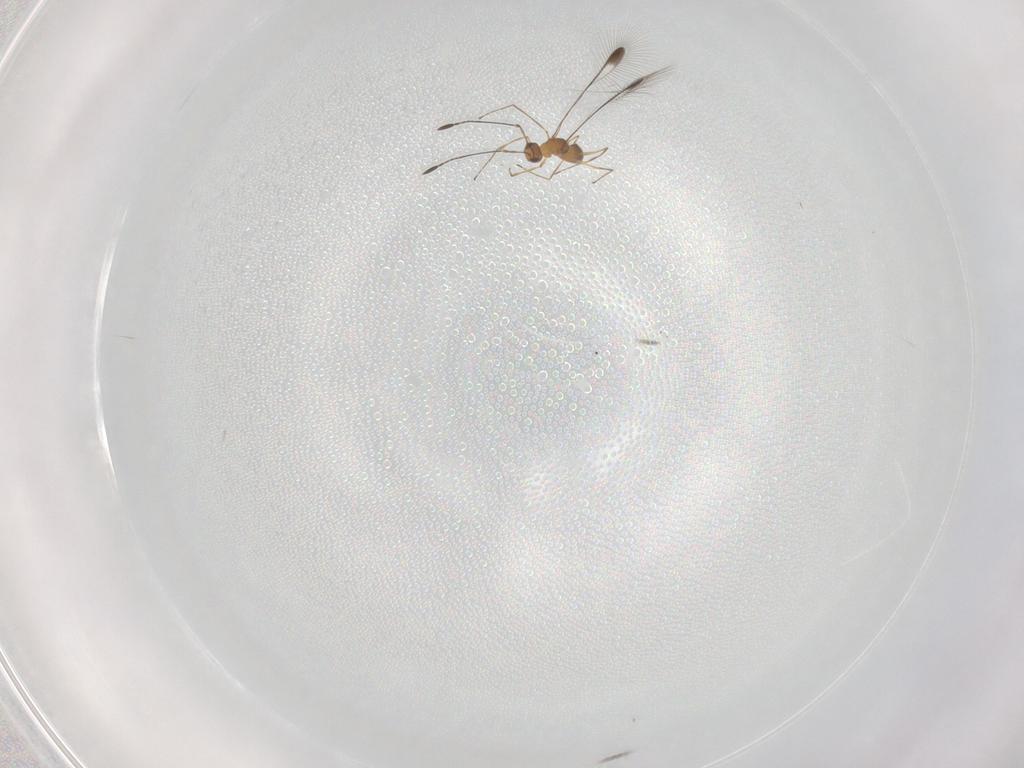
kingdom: Animalia
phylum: Arthropoda
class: Insecta
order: Hymenoptera
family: Mymaridae
